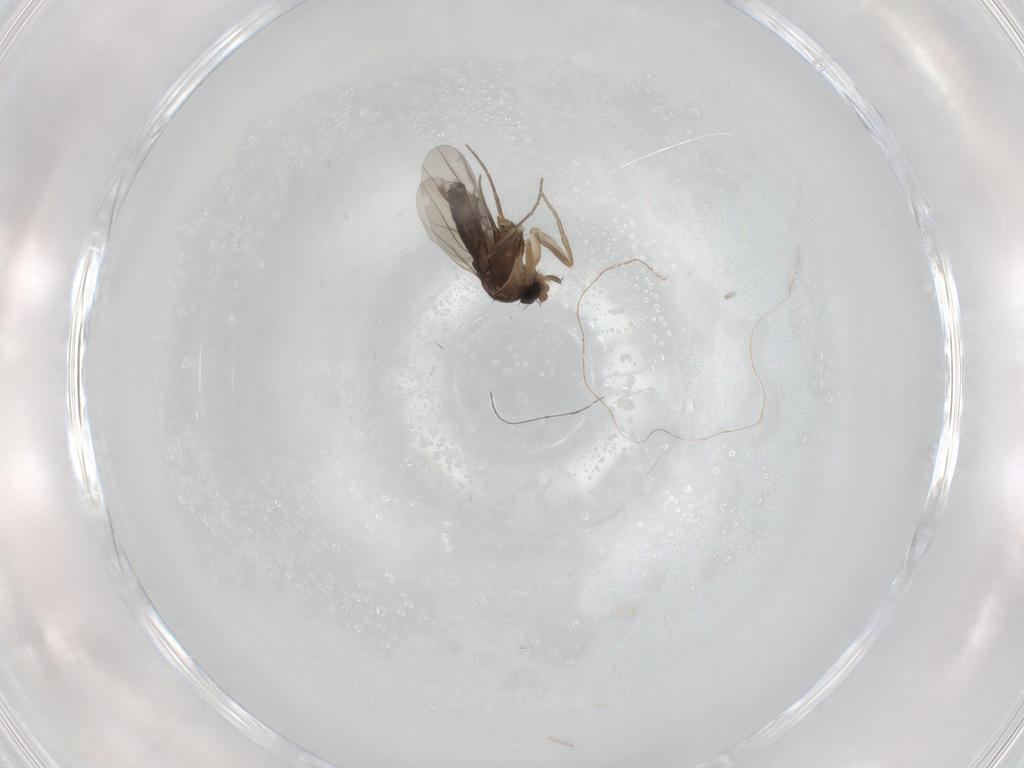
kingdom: Animalia
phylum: Arthropoda
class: Insecta
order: Diptera
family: Phoridae
